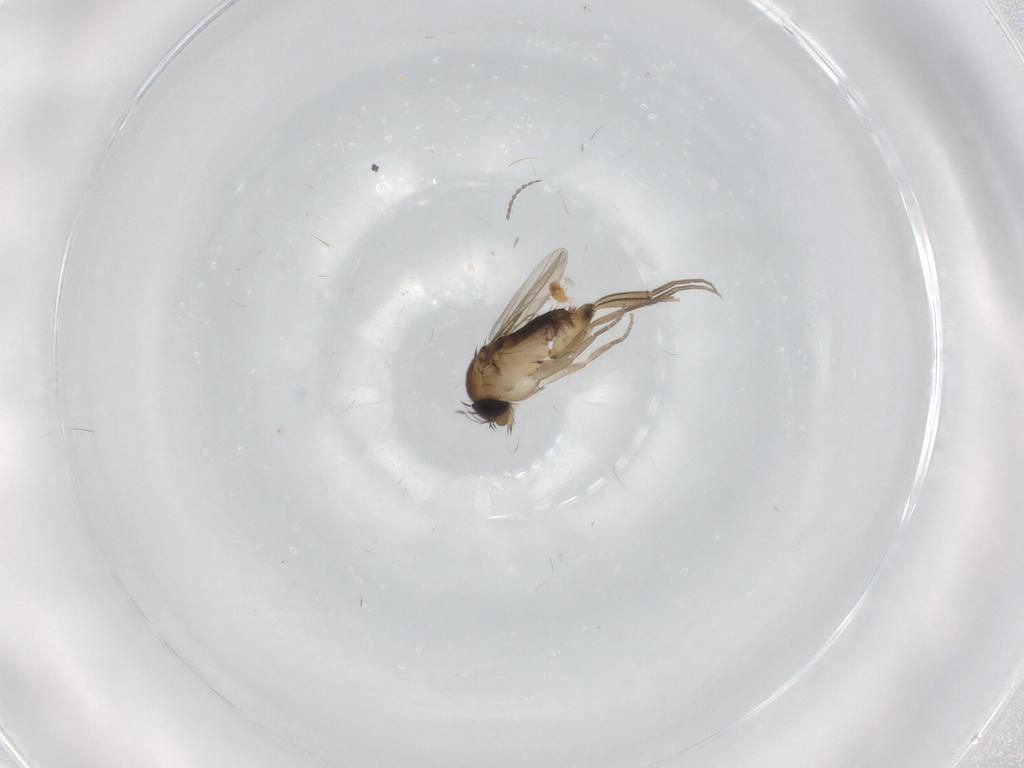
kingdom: Animalia
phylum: Arthropoda
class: Insecta
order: Diptera
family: Phoridae
